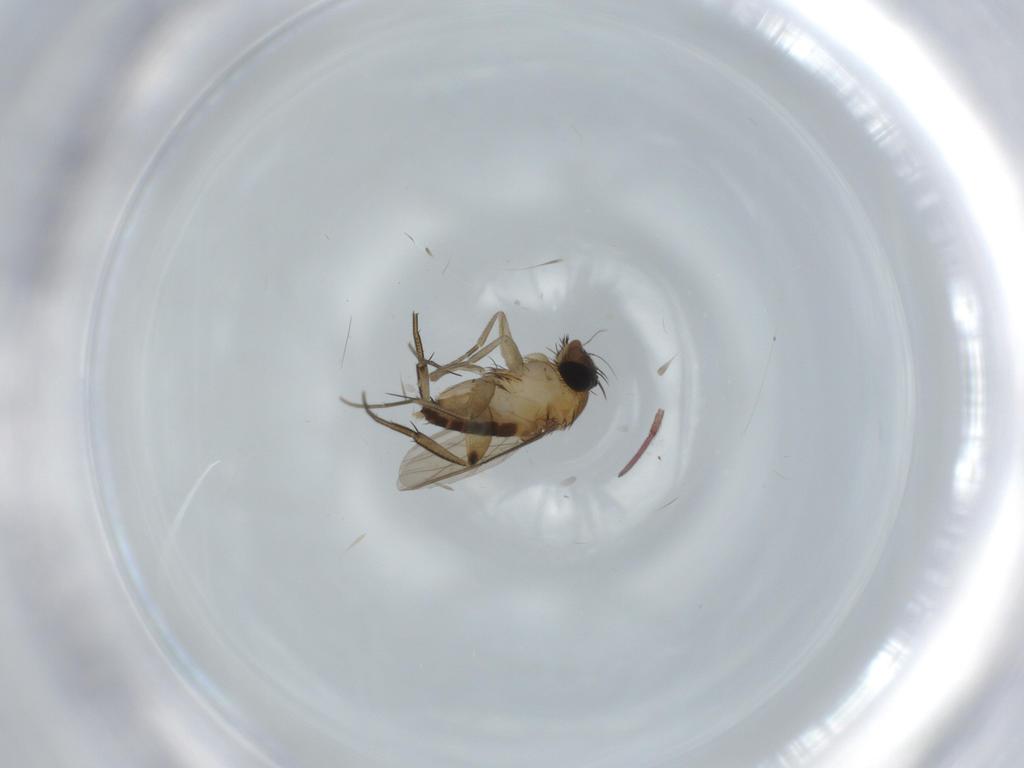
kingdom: Animalia
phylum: Arthropoda
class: Insecta
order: Diptera
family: Phoridae
